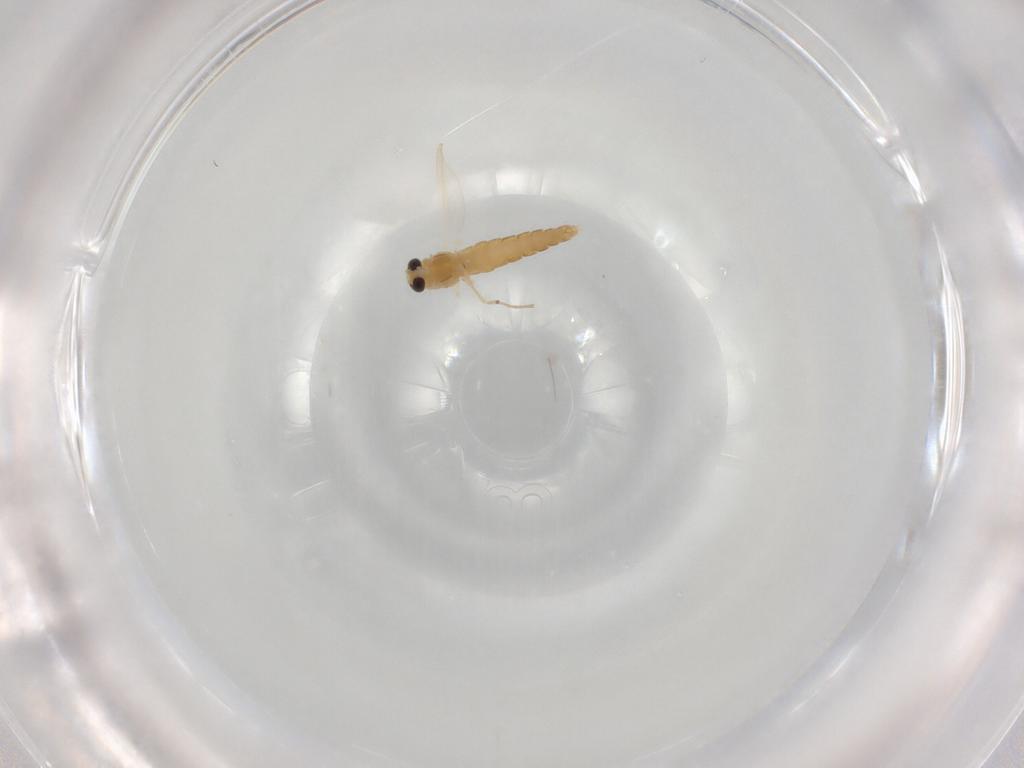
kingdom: Animalia
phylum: Arthropoda
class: Insecta
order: Diptera
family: Chironomidae
